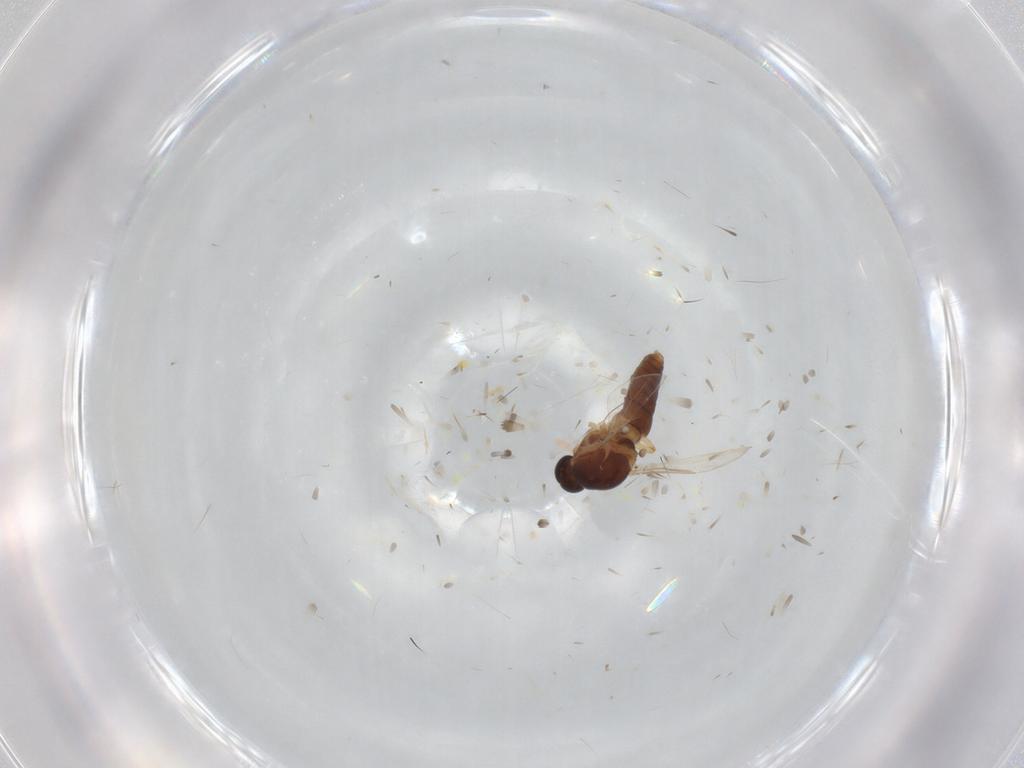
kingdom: Animalia
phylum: Arthropoda
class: Insecta
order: Diptera
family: Ceratopogonidae
